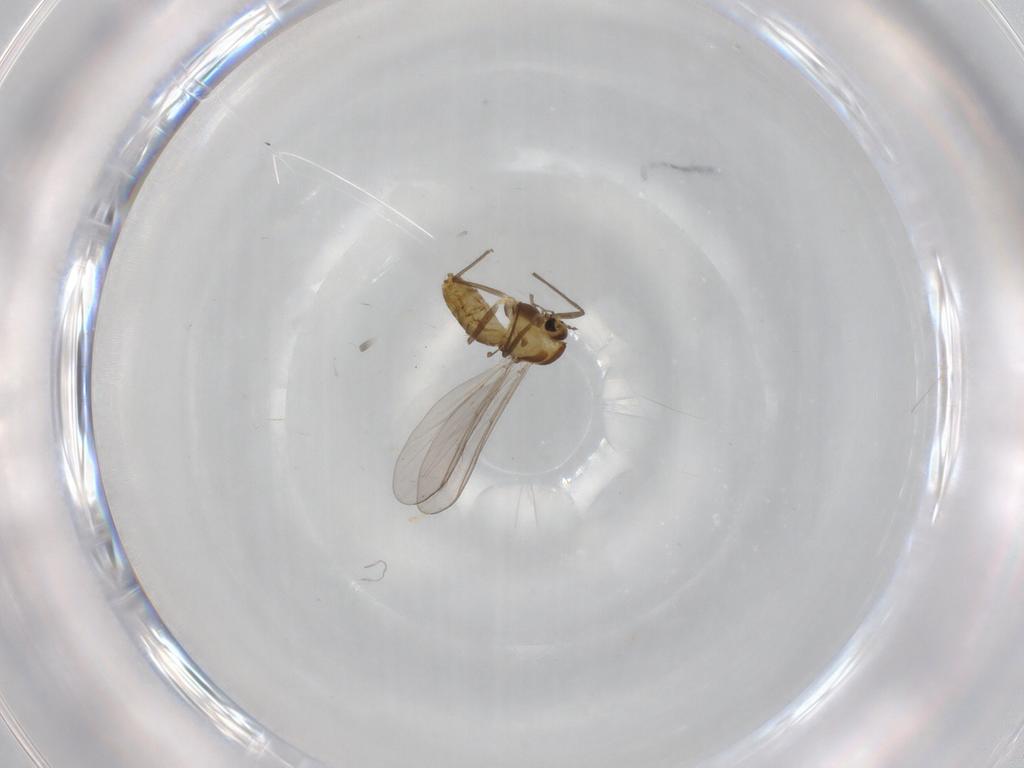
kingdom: Animalia
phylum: Arthropoda
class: Insecta
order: Diptera
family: Chironomidae
